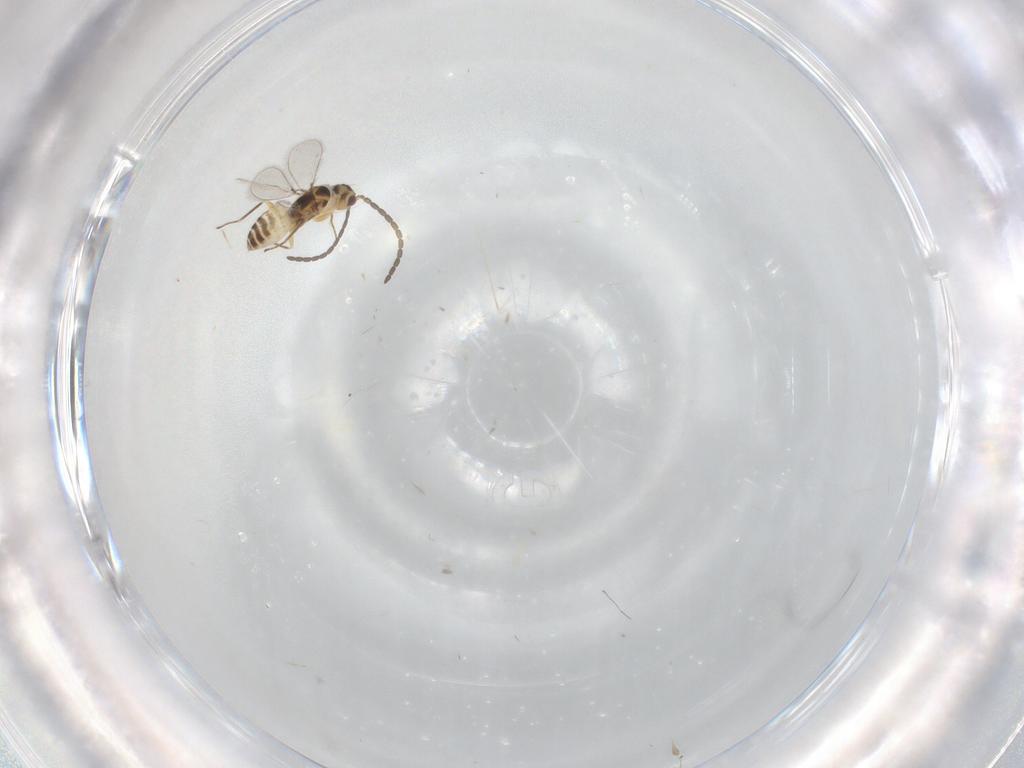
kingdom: Animalia
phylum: Arthropoda
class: Insecta
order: Hymenoptera
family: Mymaridae
